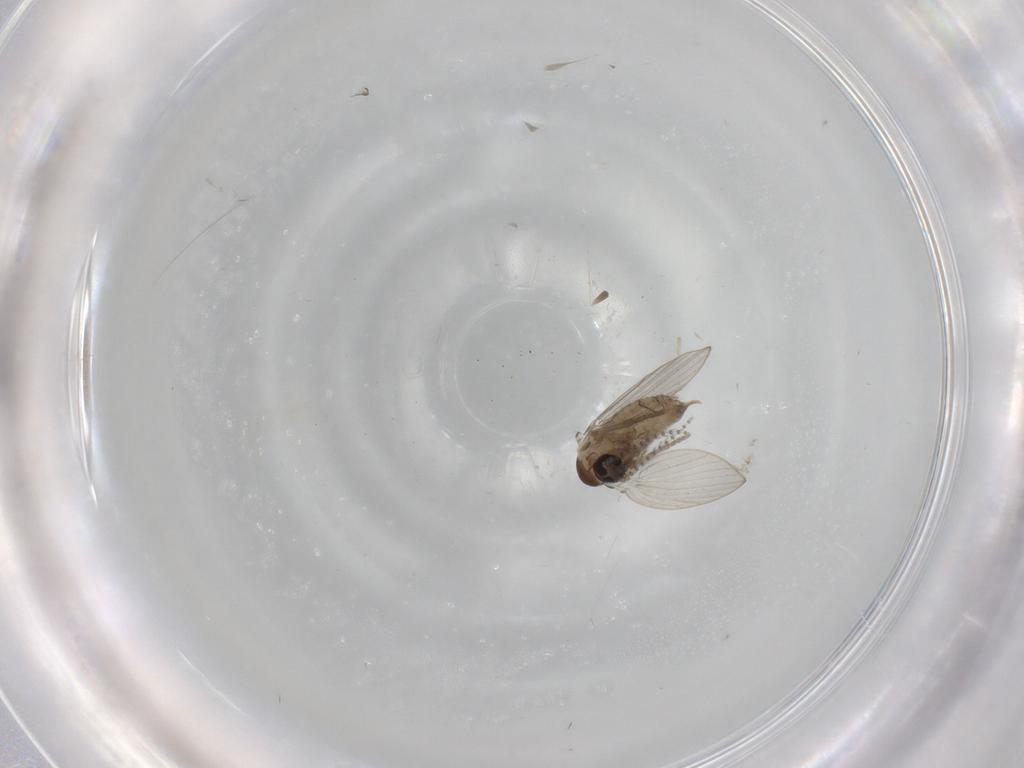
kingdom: Animalia
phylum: Arthropoda
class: Insecta
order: Diptera
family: Psychodidae
